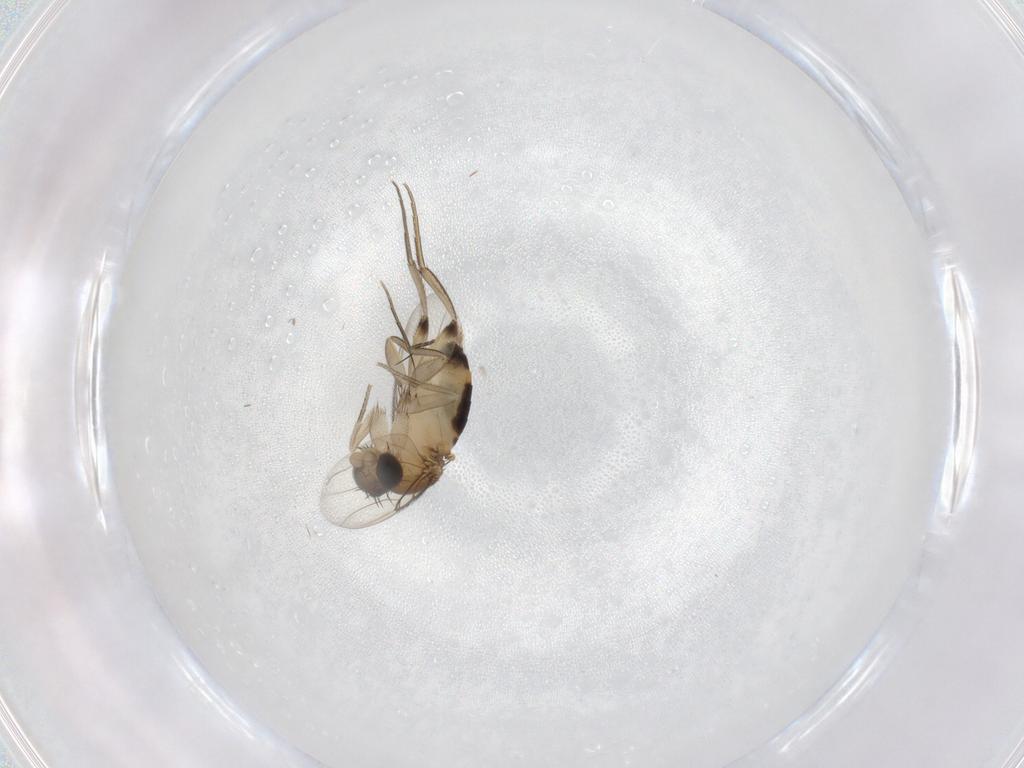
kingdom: Animalia
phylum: Arthropoda
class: Insecta
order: Diptera
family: Phoridae
